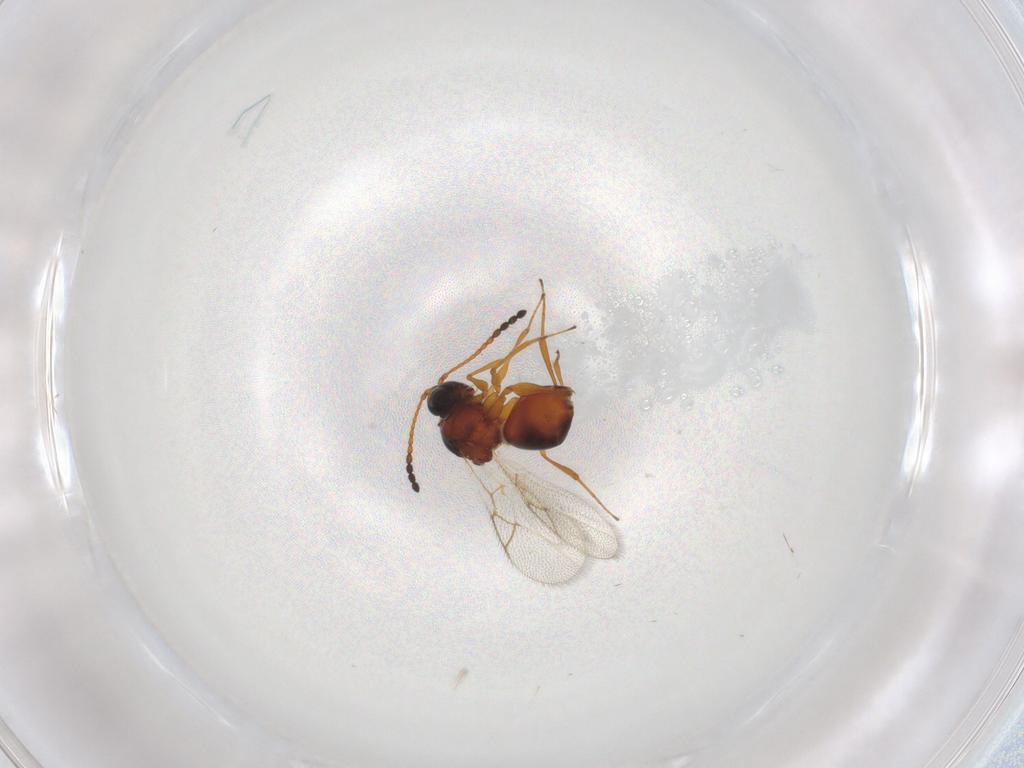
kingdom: Animalia
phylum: Arthropoda
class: Insecta
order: Hymenoptera
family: Figitidae
